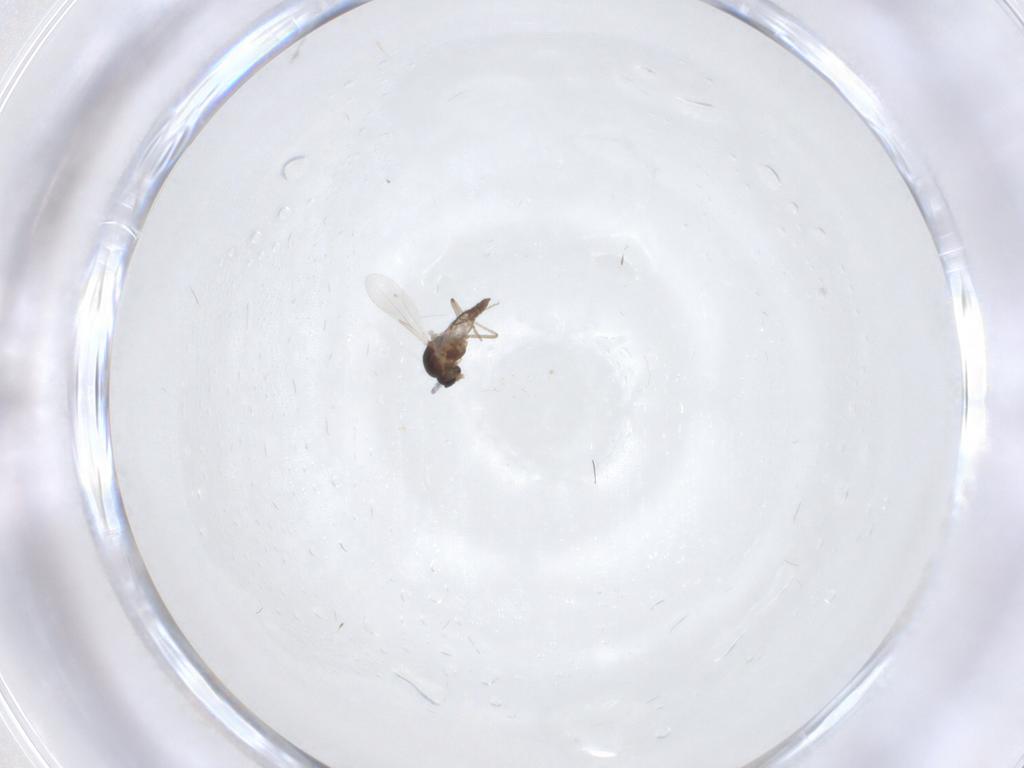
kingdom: Animalia
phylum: Arthropoda
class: Insecta
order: Diptera
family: Ceratopogonidae
